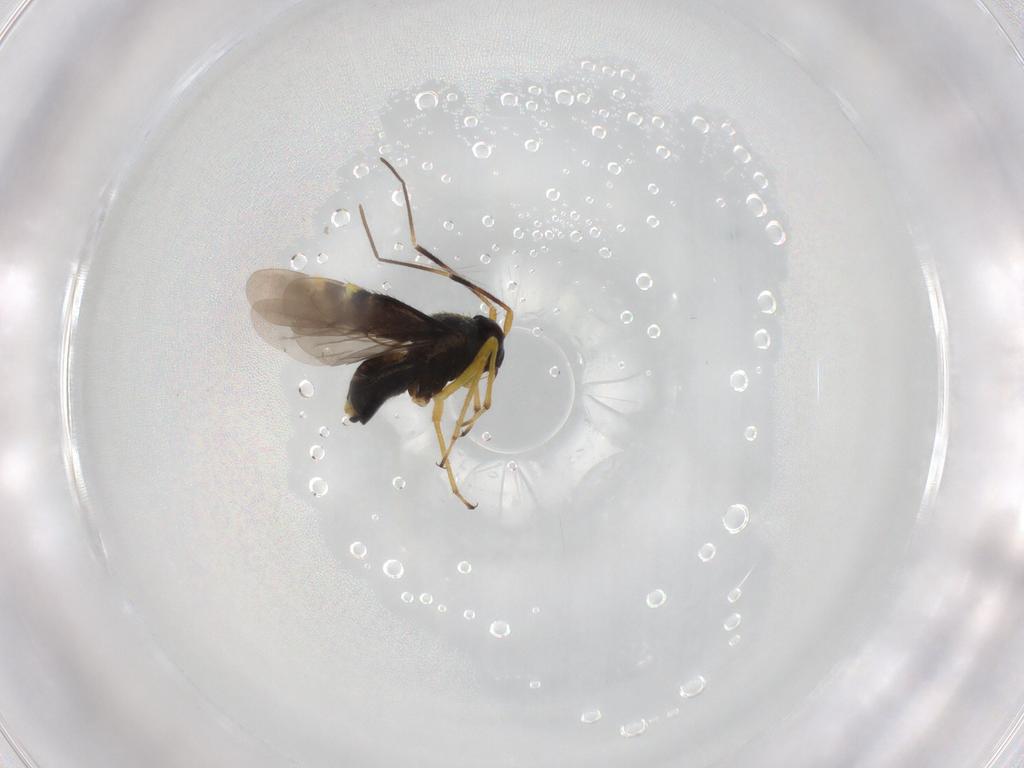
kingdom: Animalia
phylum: Arthropoda
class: Insecta
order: Hemiptera
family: Miridae
